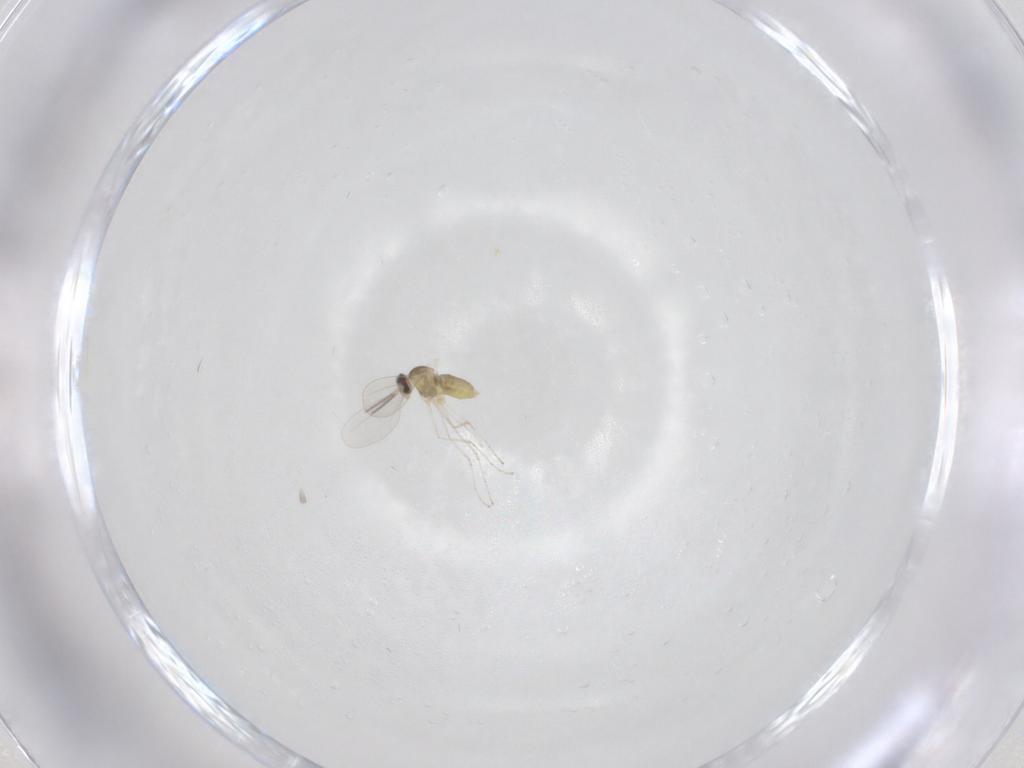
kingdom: Animalia
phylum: Arthropoda
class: Insecta
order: Diptera
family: Cecidomyiidae
